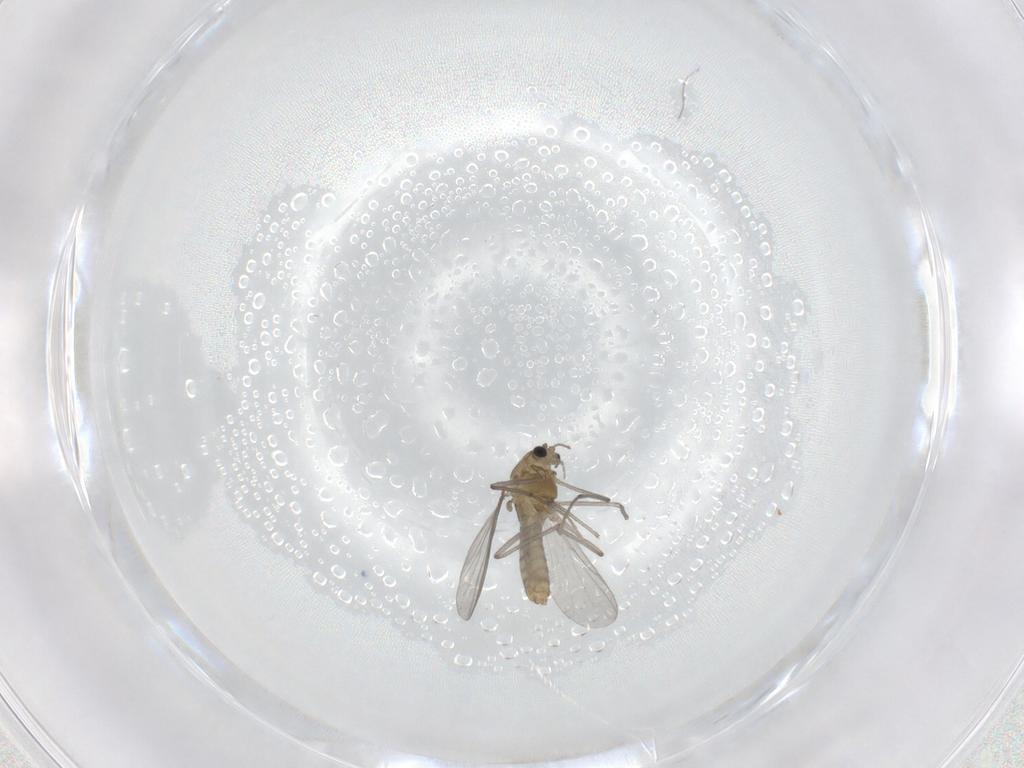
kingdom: Animalia
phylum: Arthropoda
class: Insecta
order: Diptera
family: Chironomidae
